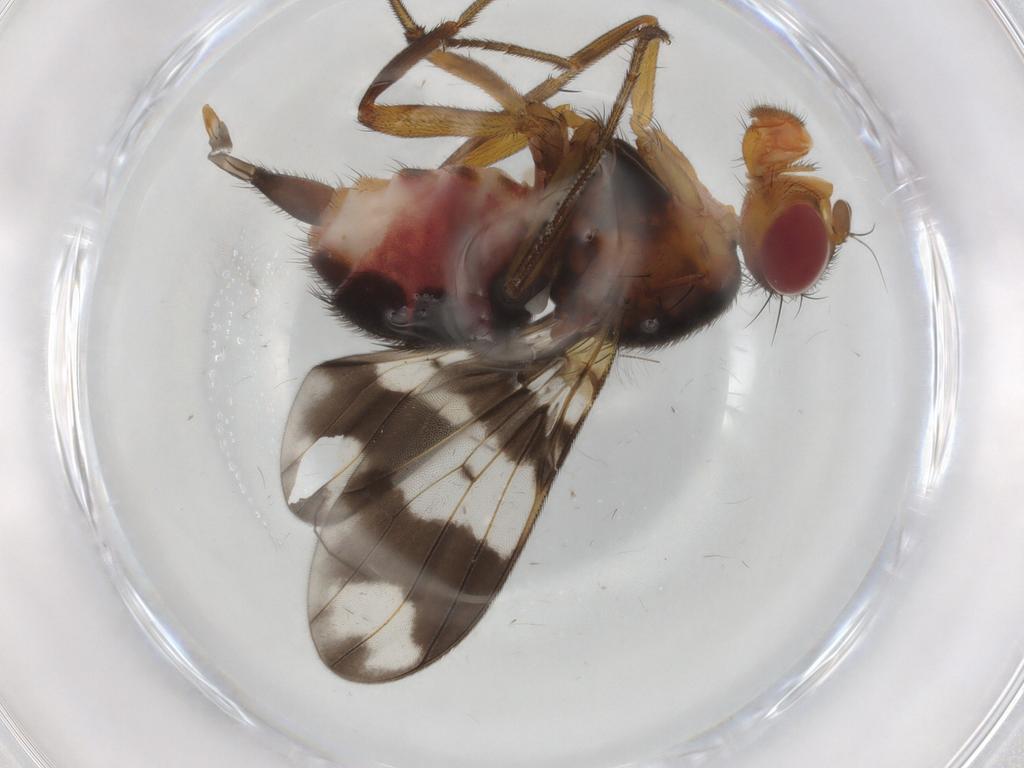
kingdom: Animalia
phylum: Arthropoda
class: Insecta
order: Diptera
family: Richardiidae
